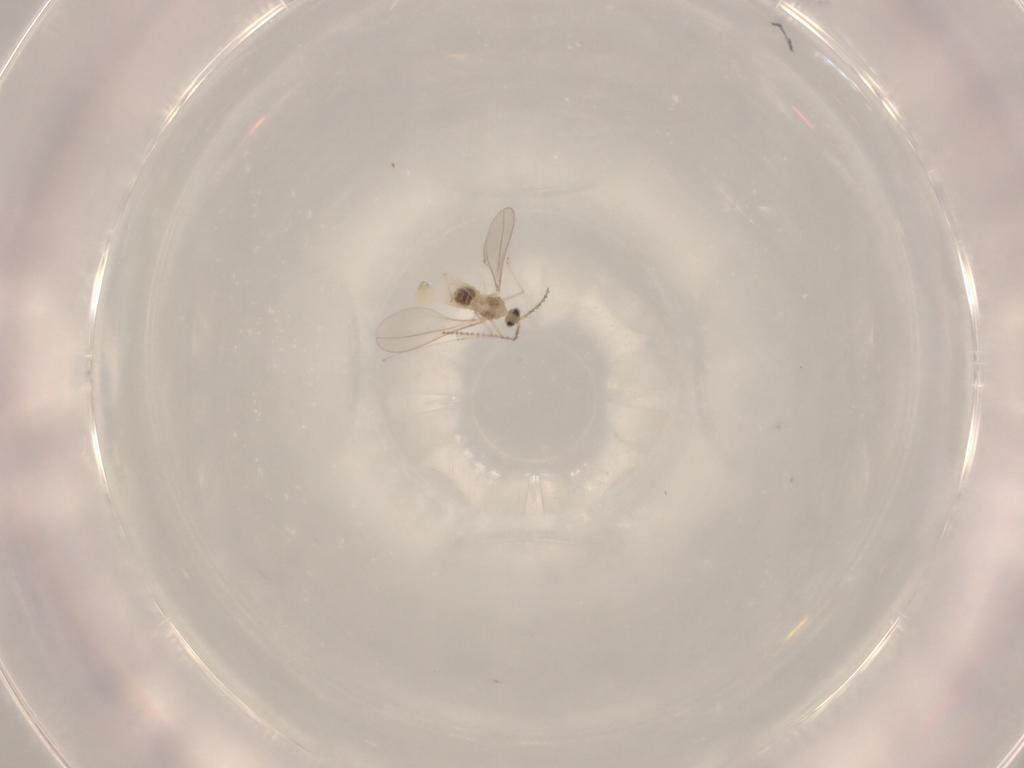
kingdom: Animalia
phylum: Arthropoda
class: Insecta
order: Diptera
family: Cecidomyiidae
